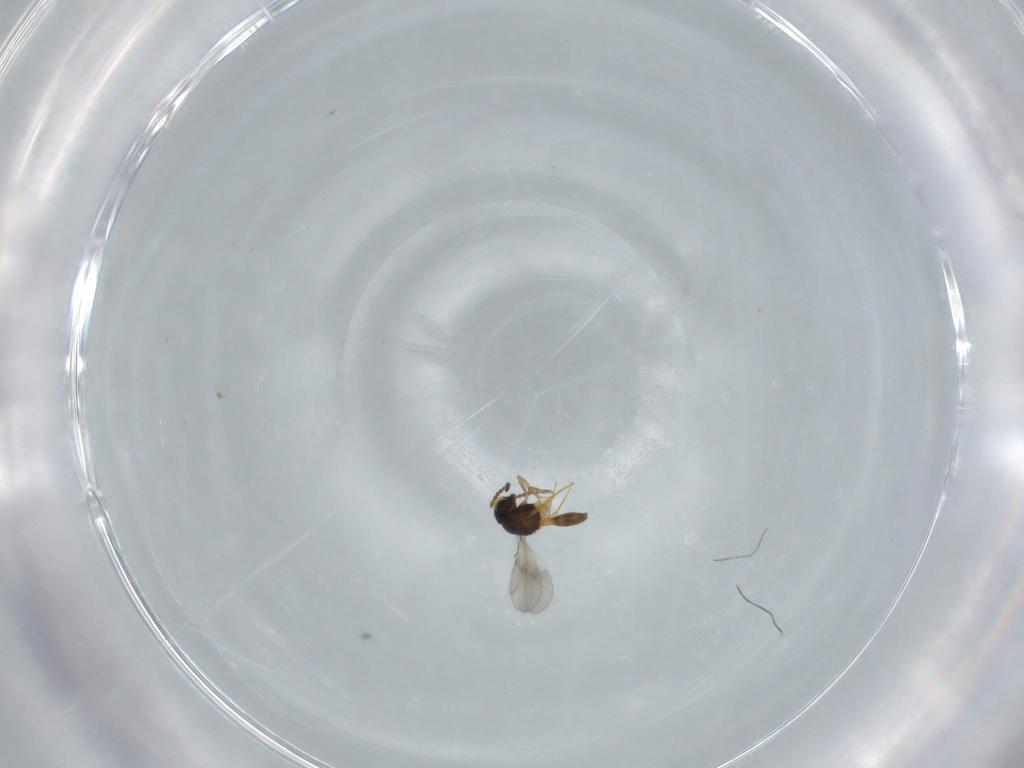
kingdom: Animalia
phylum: Arthropoda
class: Insecta
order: Hymenoptera
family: Scelionidae
